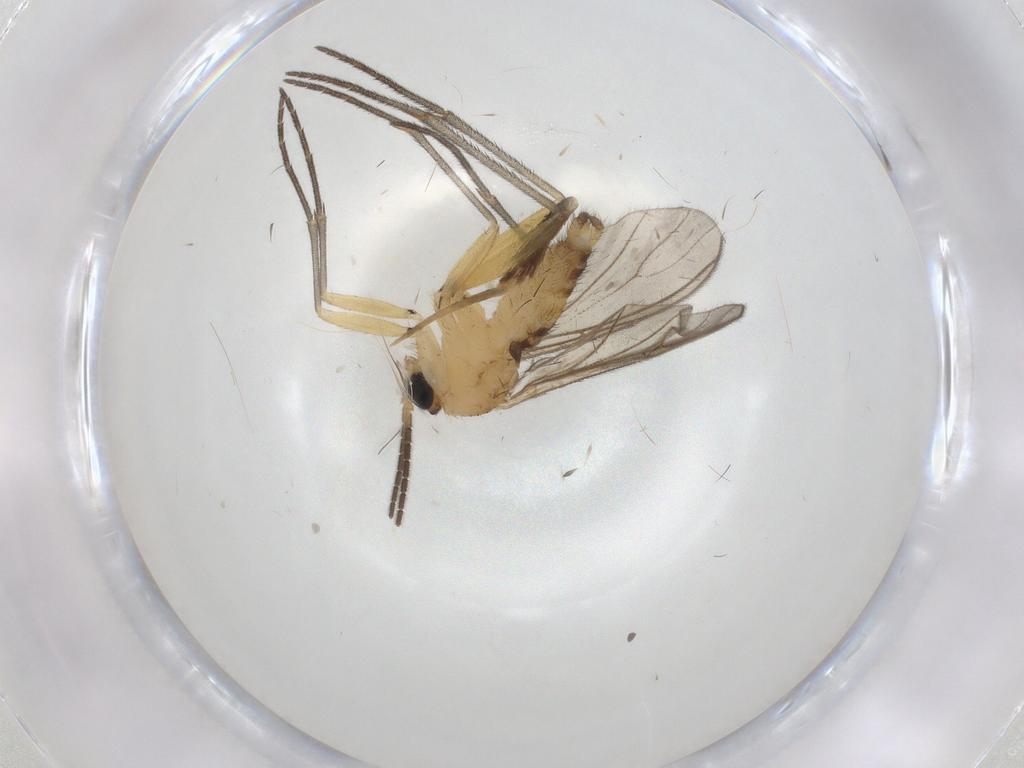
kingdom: Animalia
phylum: Arthropoda
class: Insecta
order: Diptera
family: Sciaridae
